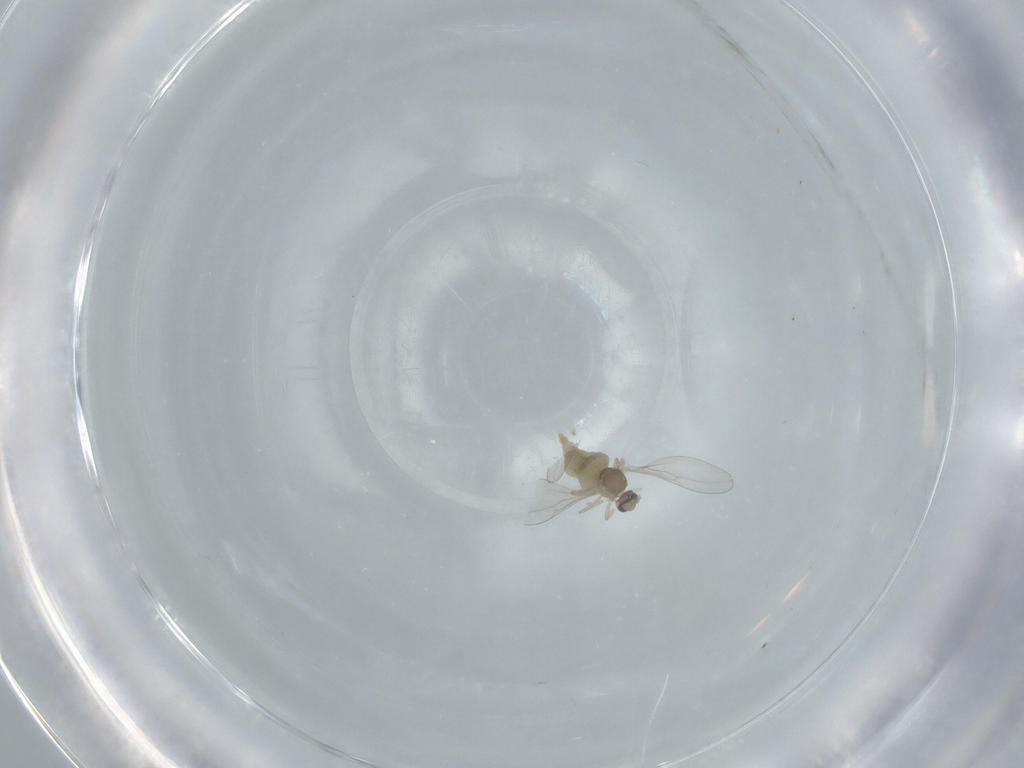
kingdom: Animalia
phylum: Arthropoda
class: Insecta
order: Diptera
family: Cecidomyiidae
